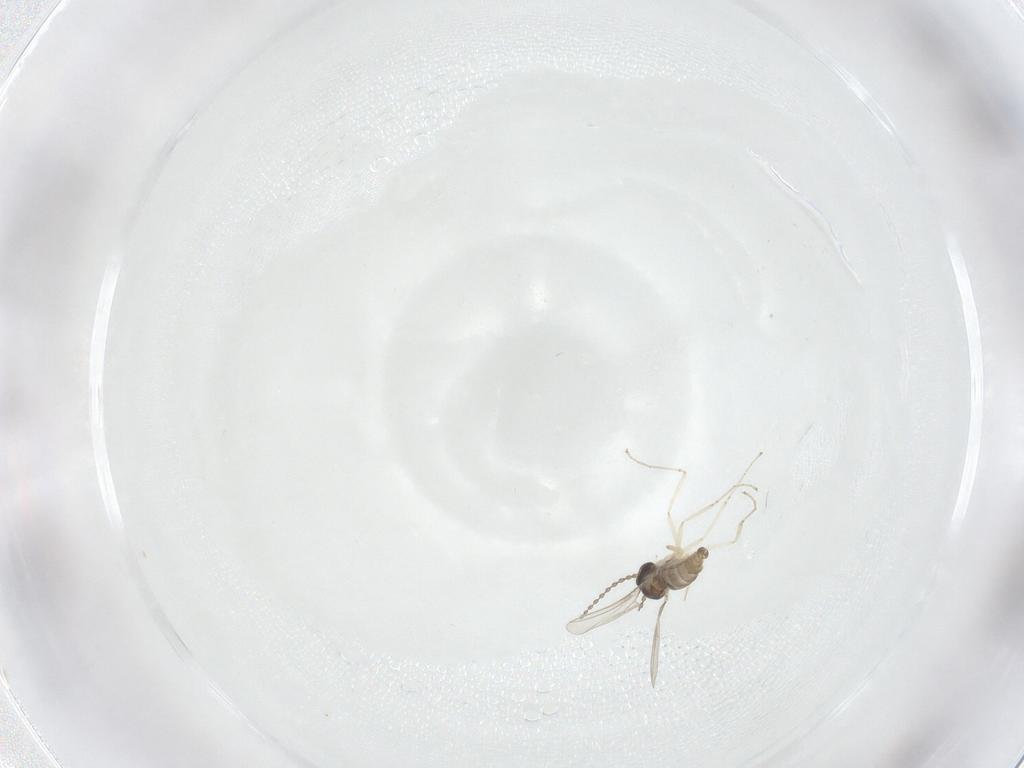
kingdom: Animalia
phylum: Arthropoda
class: Insecta
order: Diptera
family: Cecidomyiidae
